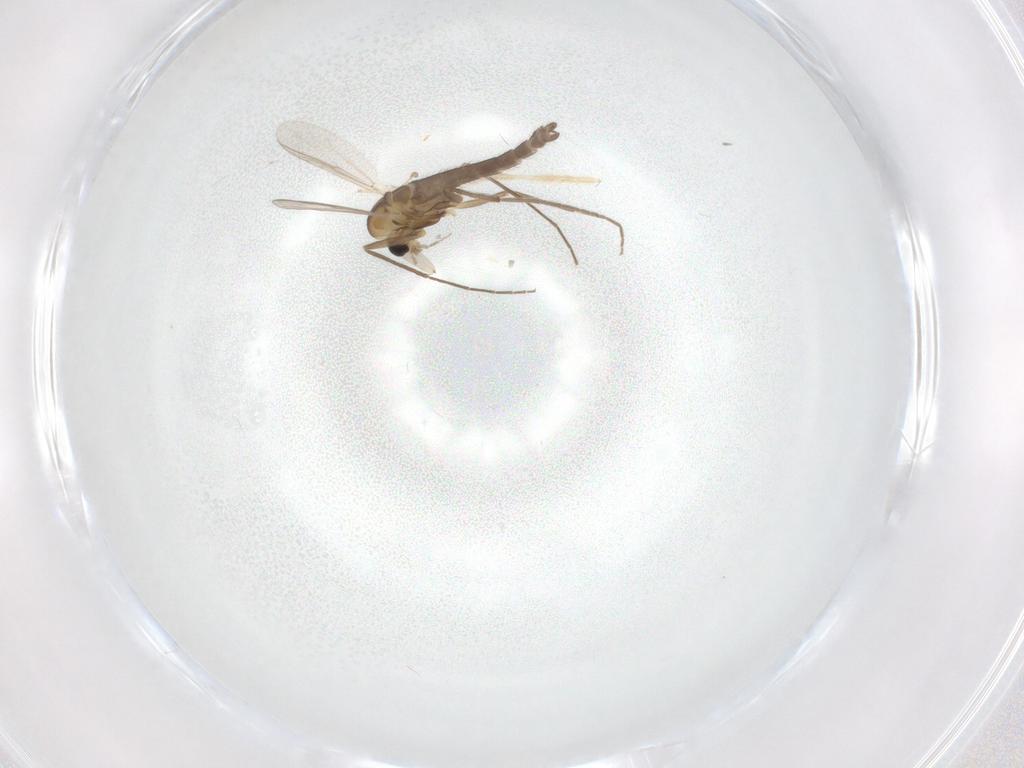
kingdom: Animalia
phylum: Arthropoda
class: Insecta
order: Diptera
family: Chironomidae
